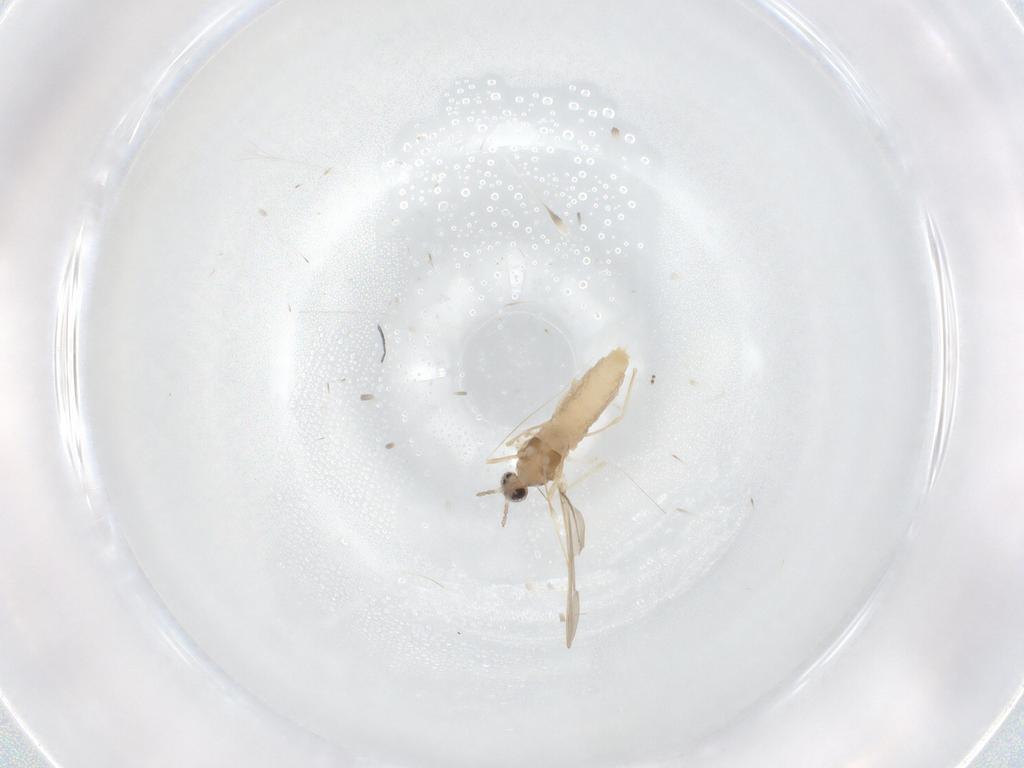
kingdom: Animalia
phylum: Arthropoda
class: Insecta
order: Diptera
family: Cecidomyiidae
